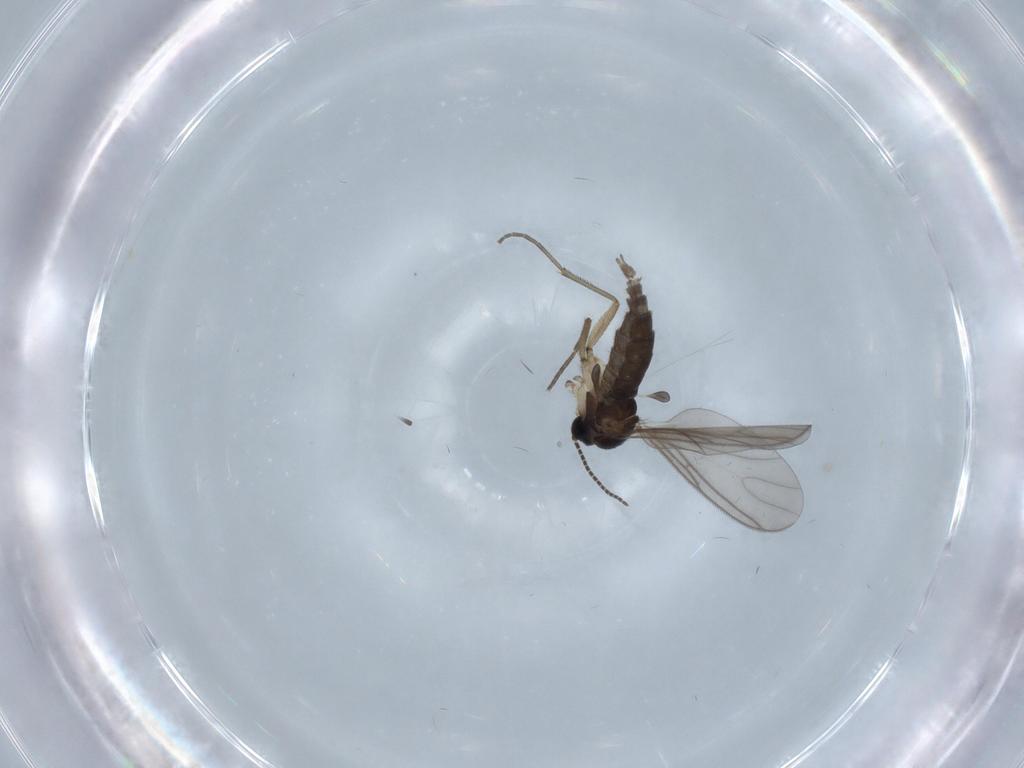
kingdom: Animalia
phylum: Arthropoda
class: Insecta
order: Diptera
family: Sciaridae
